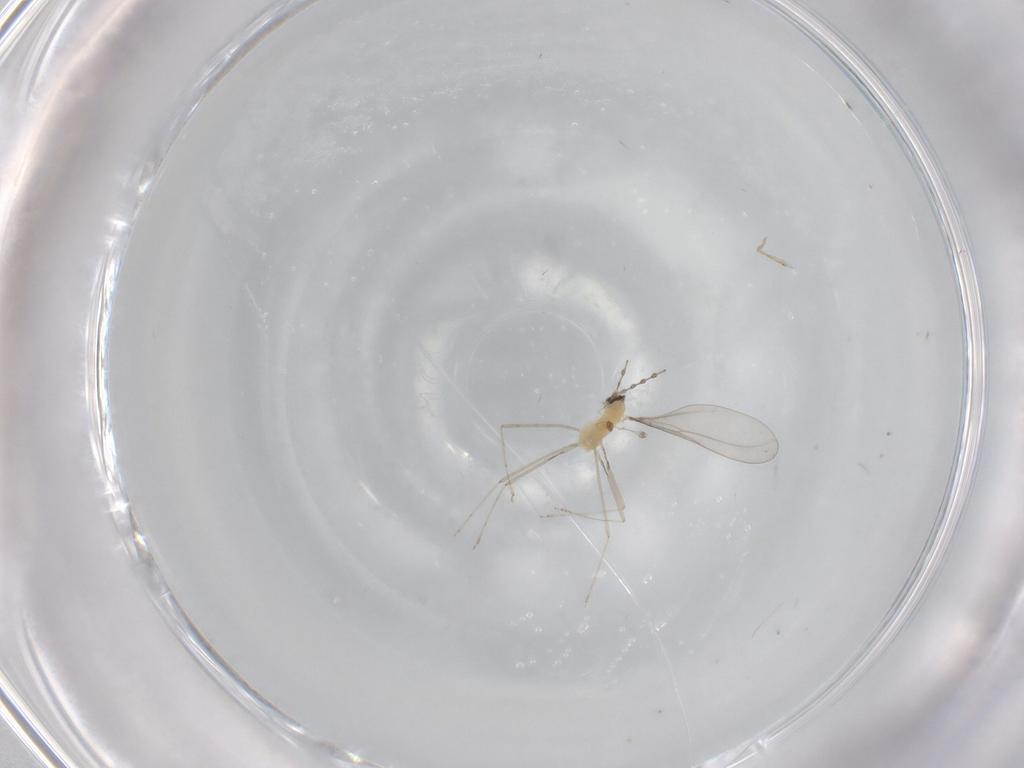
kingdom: Animalia
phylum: Arthropoda
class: Insecta
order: Diptera
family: Cecidomyiidae
